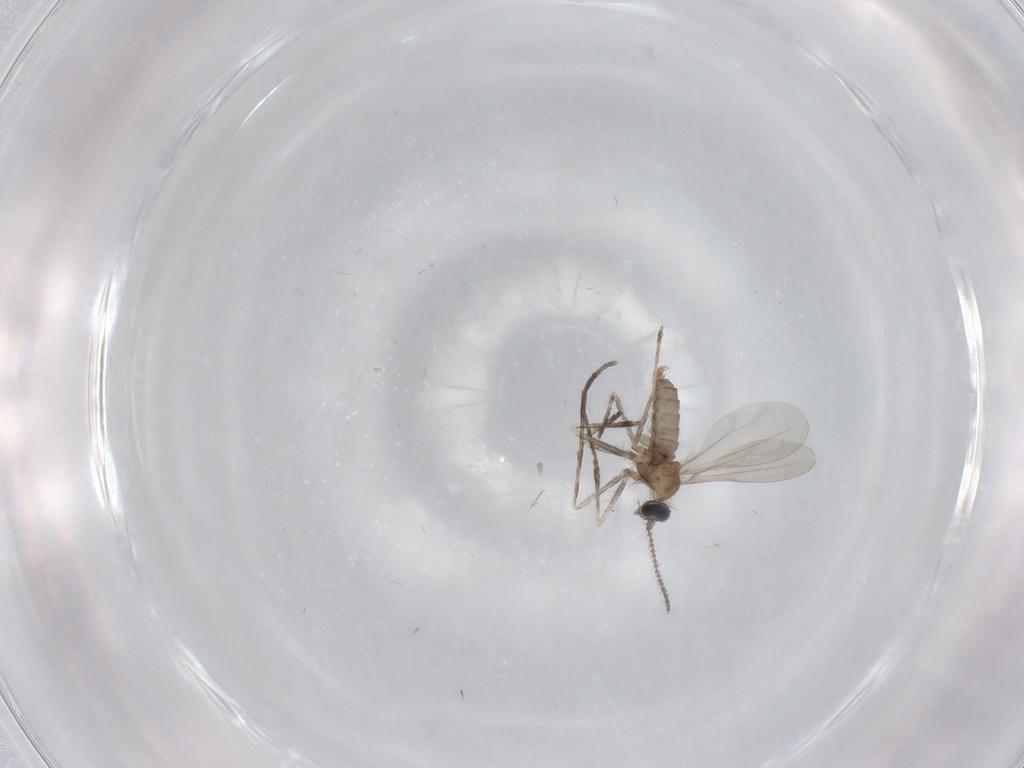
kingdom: Animalia
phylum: Arthropoda
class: Insecta
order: Diptera
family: Cecidomyiidae
